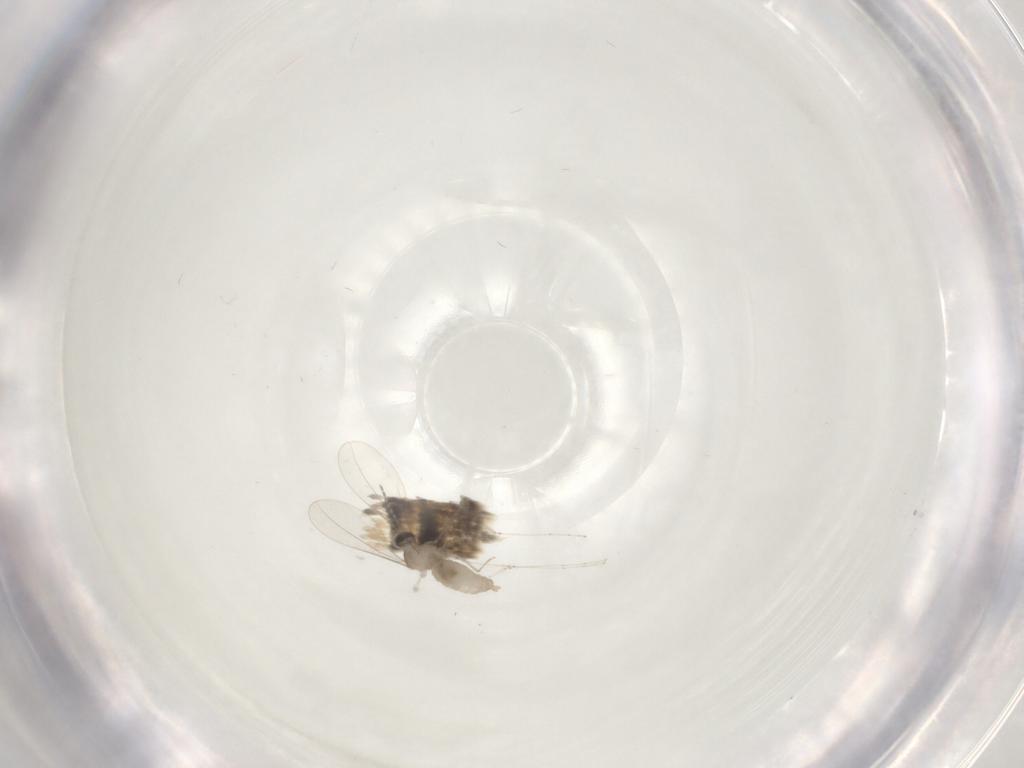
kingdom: Animalia
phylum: Arthropoda
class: Insecta
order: Diptera
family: Cecidomyiidae
